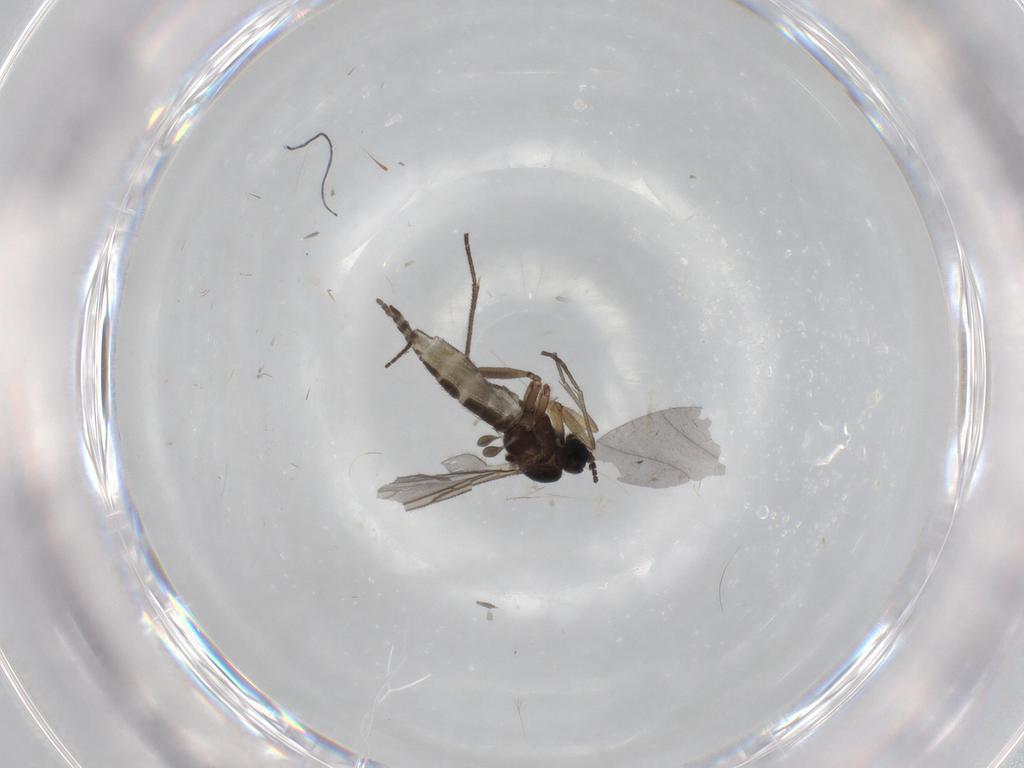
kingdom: Animalia
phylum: Arthropoda
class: Insecta
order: Diptera
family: Sciaridae
